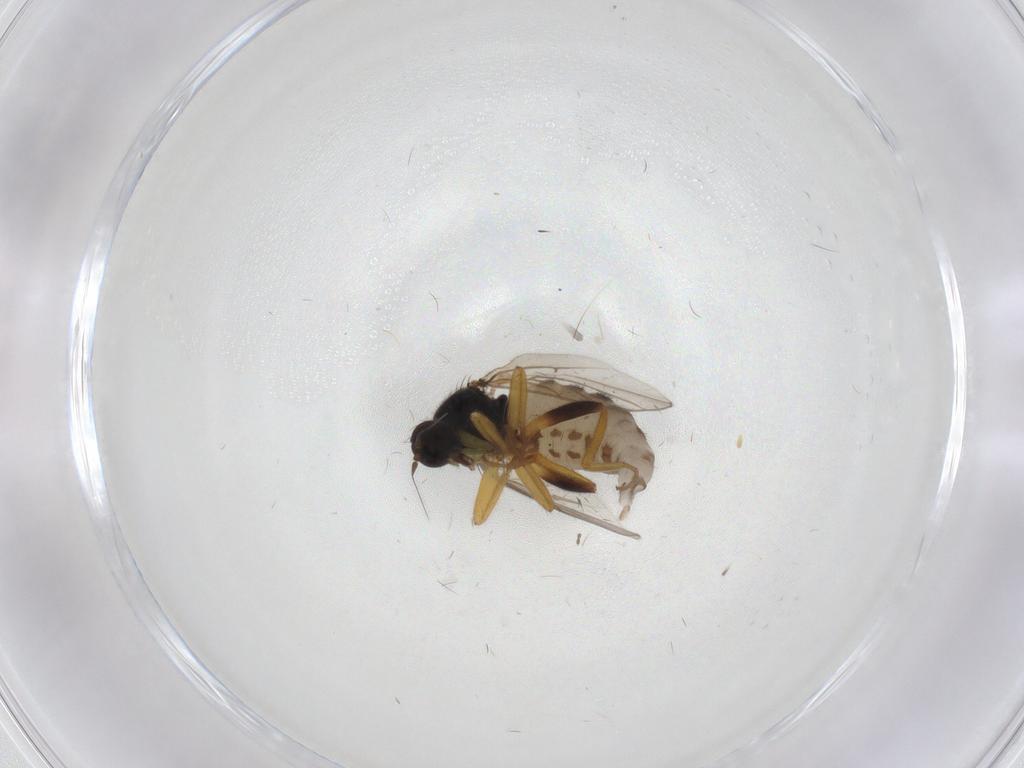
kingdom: Animalia
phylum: Arthropoda
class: Insecta
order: Diptera
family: Hybotidae
